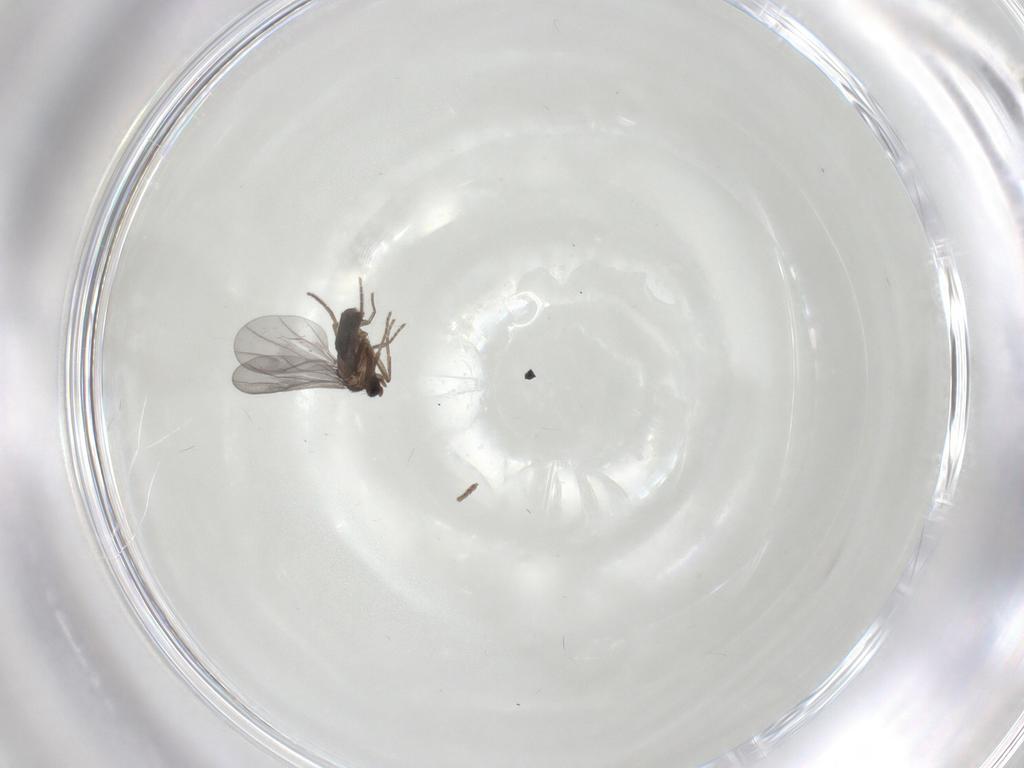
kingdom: Animalia
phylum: Arthropoda
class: Insecta
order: Diptera
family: Psychodidae
